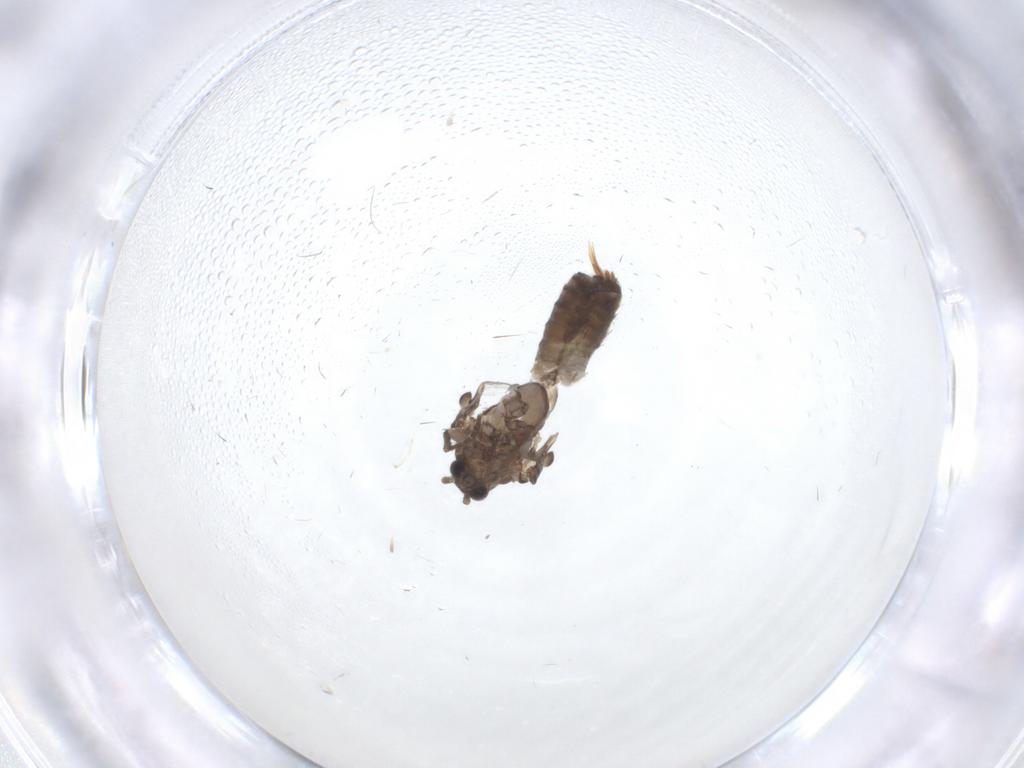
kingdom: Animalia
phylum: Arthropoda
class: Insecta
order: Diptera
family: Psychodidae
